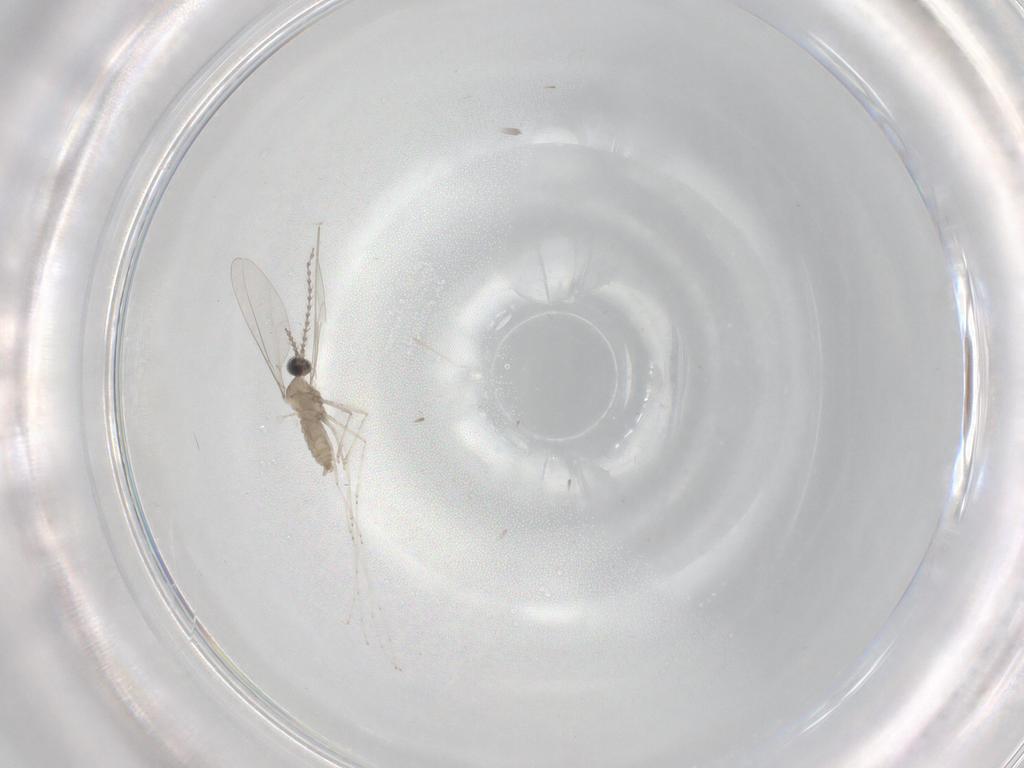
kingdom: Animalia
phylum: Arthropoda
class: Insecta
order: Diptera
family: Cecidomyiidae
